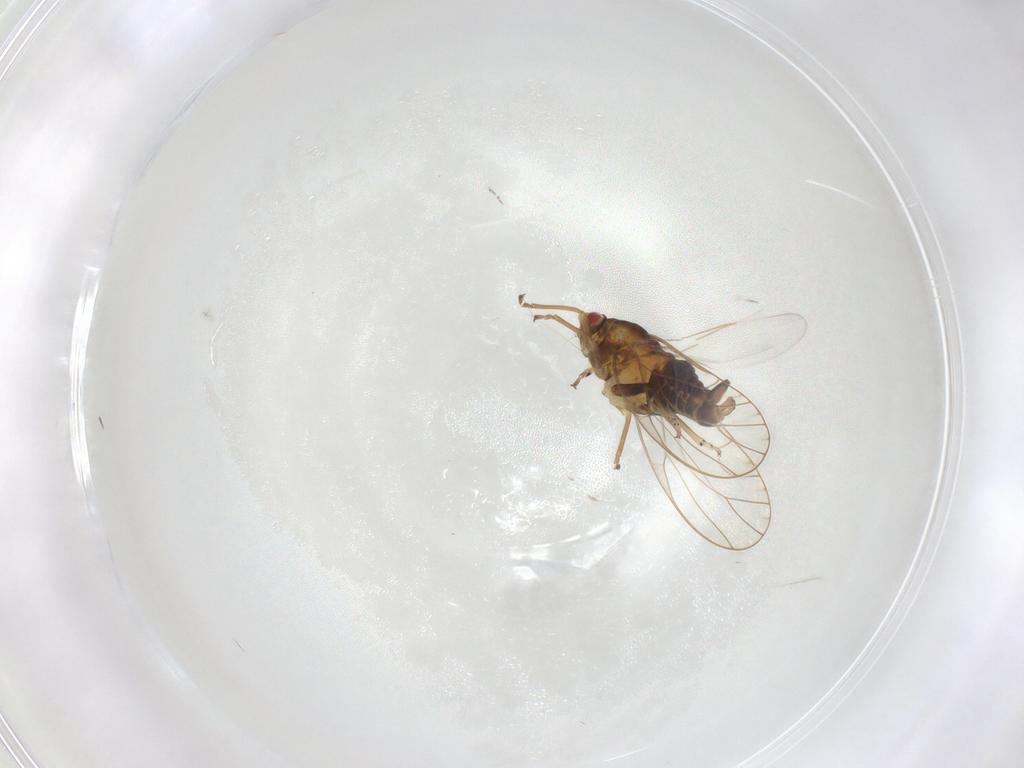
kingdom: Animalia
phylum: Arthropoda
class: Insecta
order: Hemiptera
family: Psyllidae
